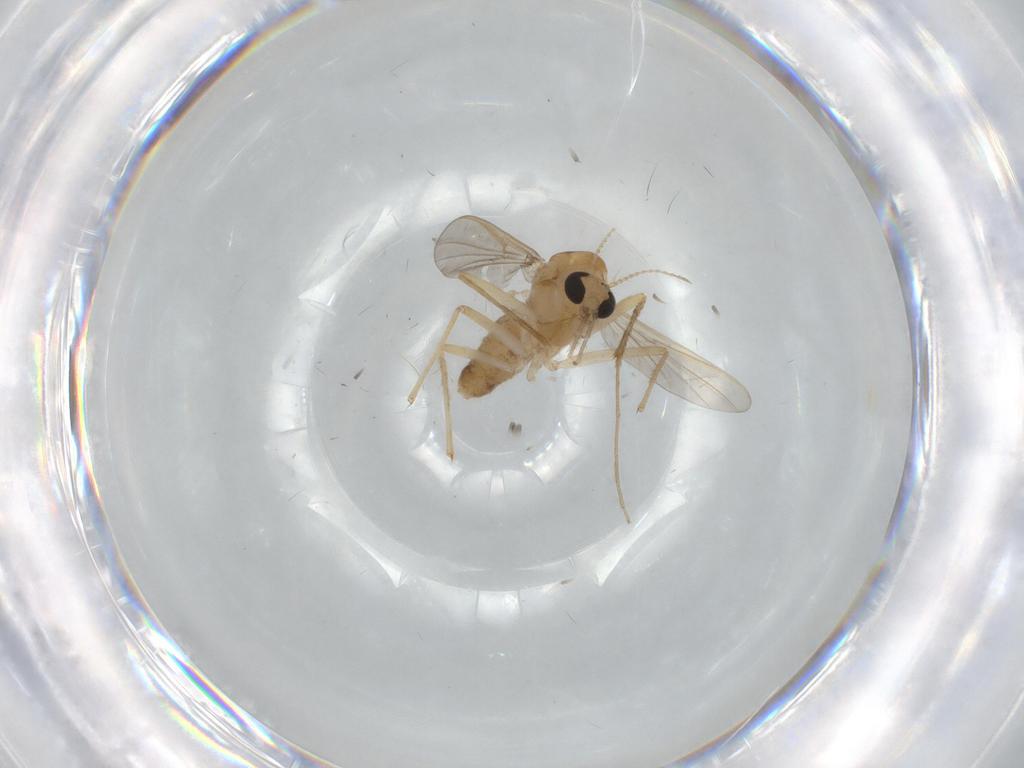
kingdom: Animalia
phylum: Arthropoda
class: Insecta
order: Diptera
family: Chironomidae
